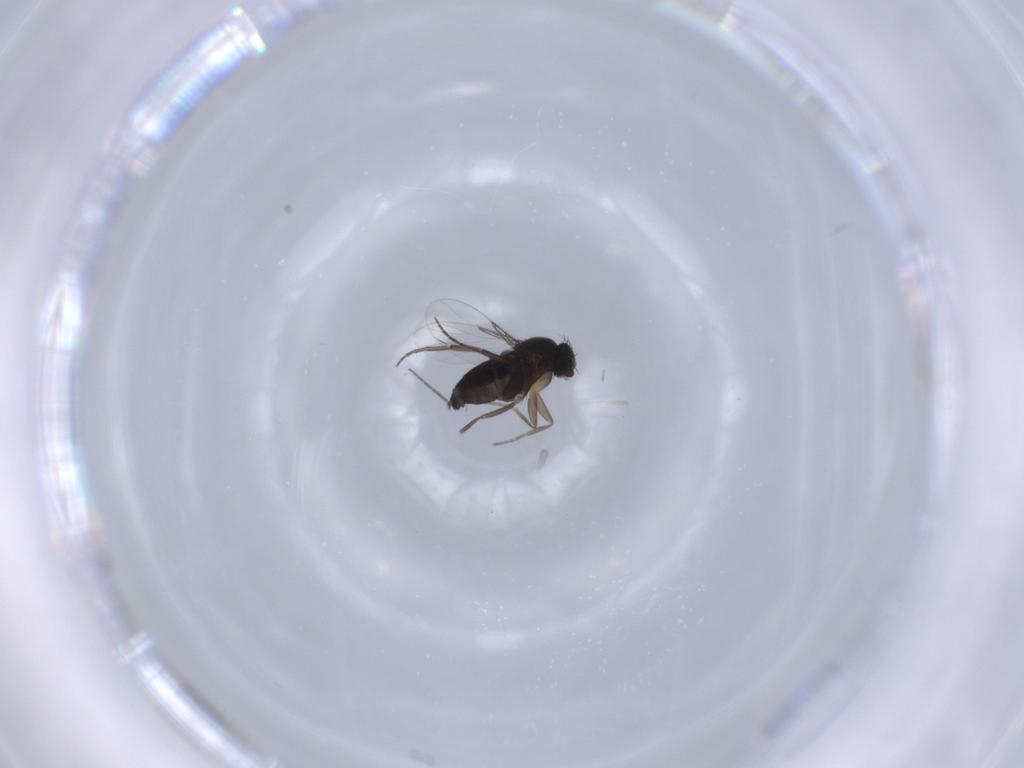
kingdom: Animalia
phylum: Arthropoda
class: Insecta
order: Diptera
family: Phoridae
